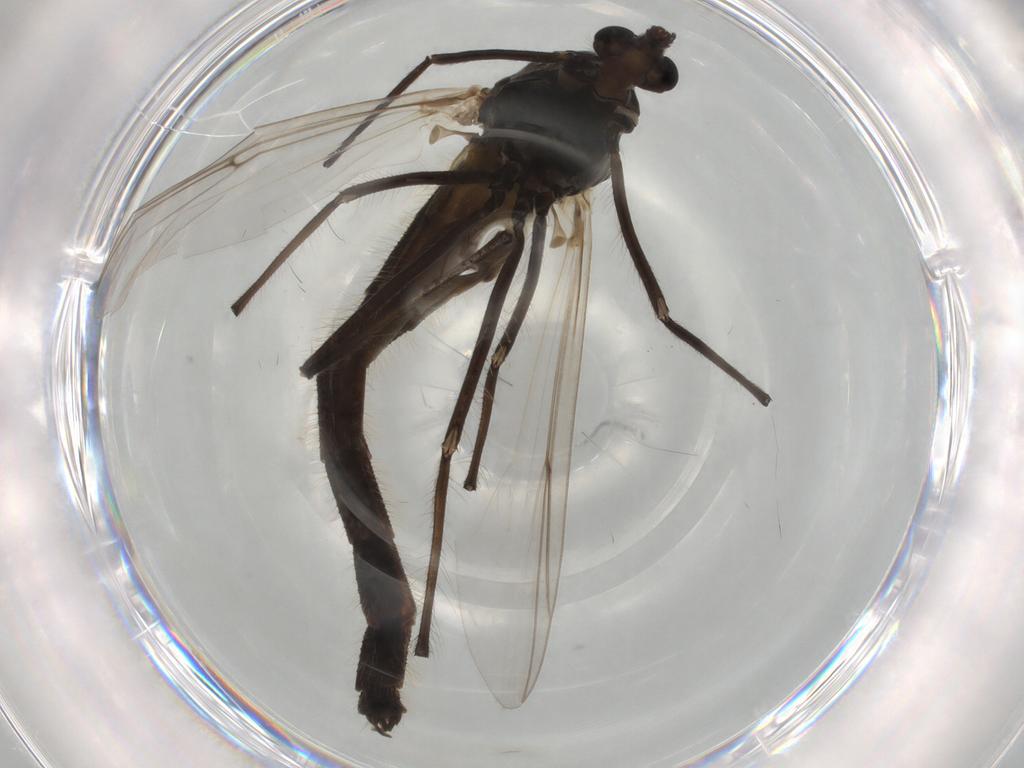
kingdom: Animalia
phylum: Arthropoda
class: Insecta
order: Diptera
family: Chironomidae
